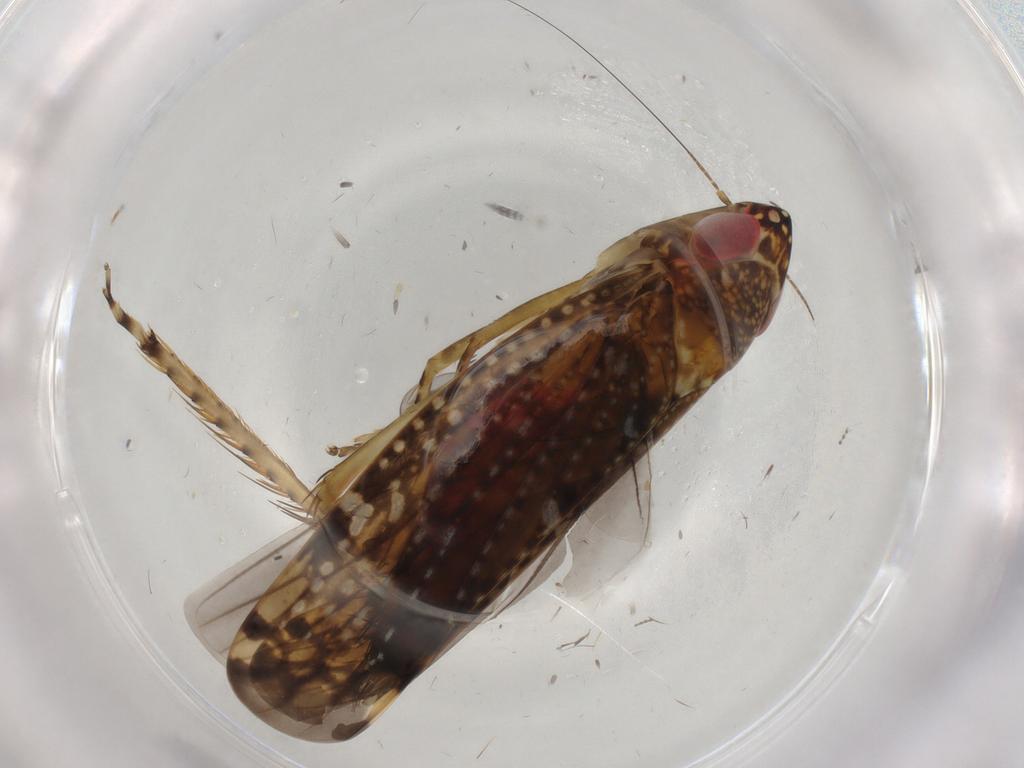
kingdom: Animalia
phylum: Arthropoda
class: Insecta
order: Hemiptera
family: Cicadellidae
